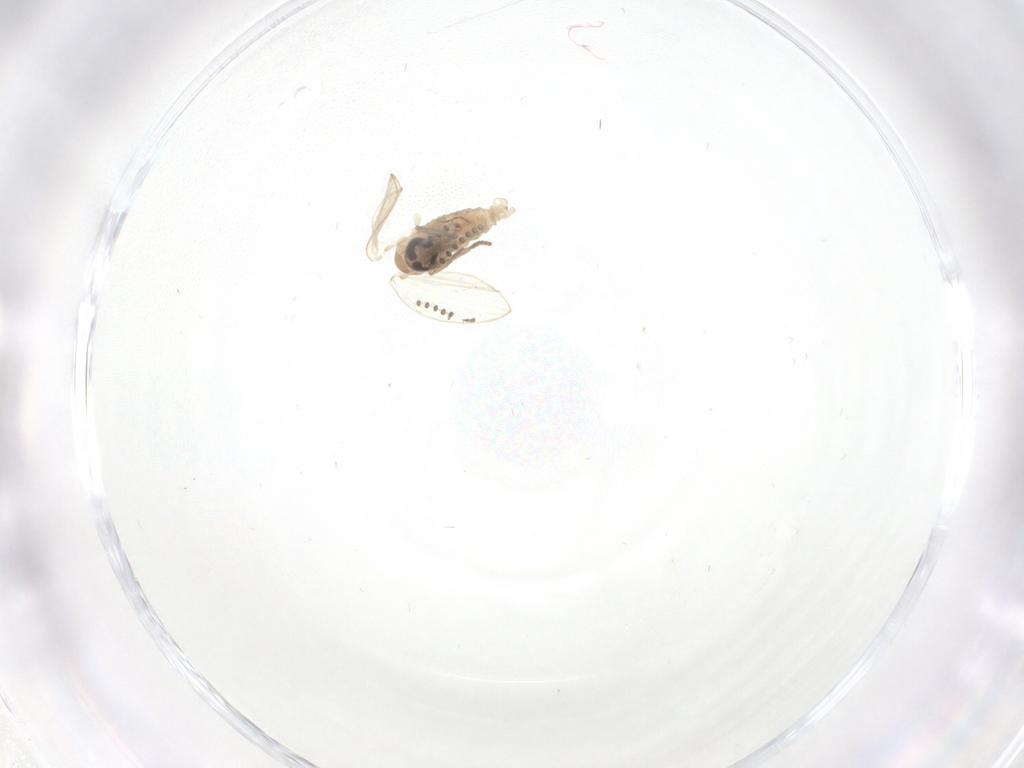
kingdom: Animalia
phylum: Arthropoda
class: Insecta
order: Diptera
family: Psychodidae
